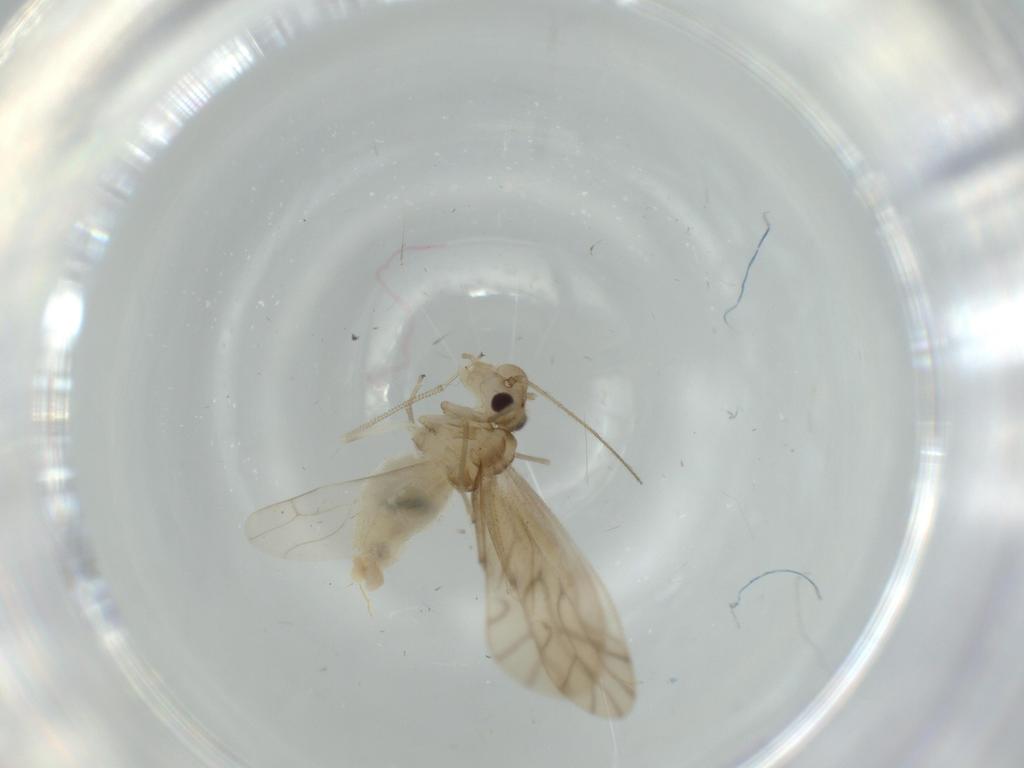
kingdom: Animalia
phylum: Arthropoda
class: Insecta
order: Psocodea
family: Caeciliusidae
